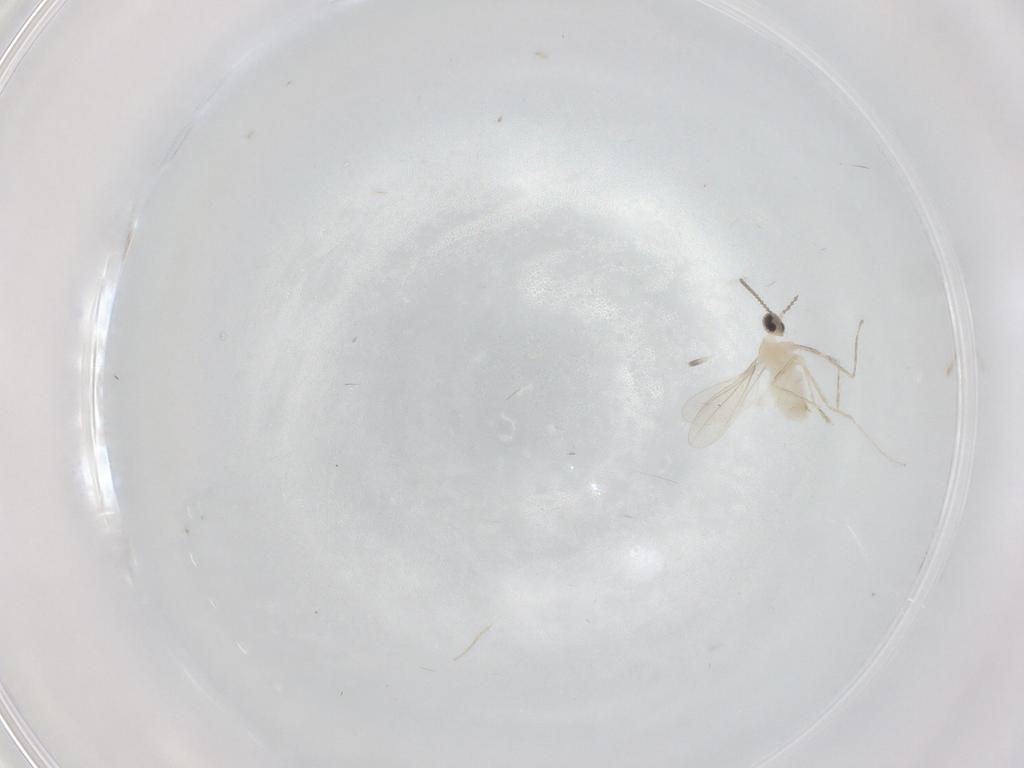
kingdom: Animalia
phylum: Arthropoda
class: Insecta
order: Diptera
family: Cecidomyiidae
